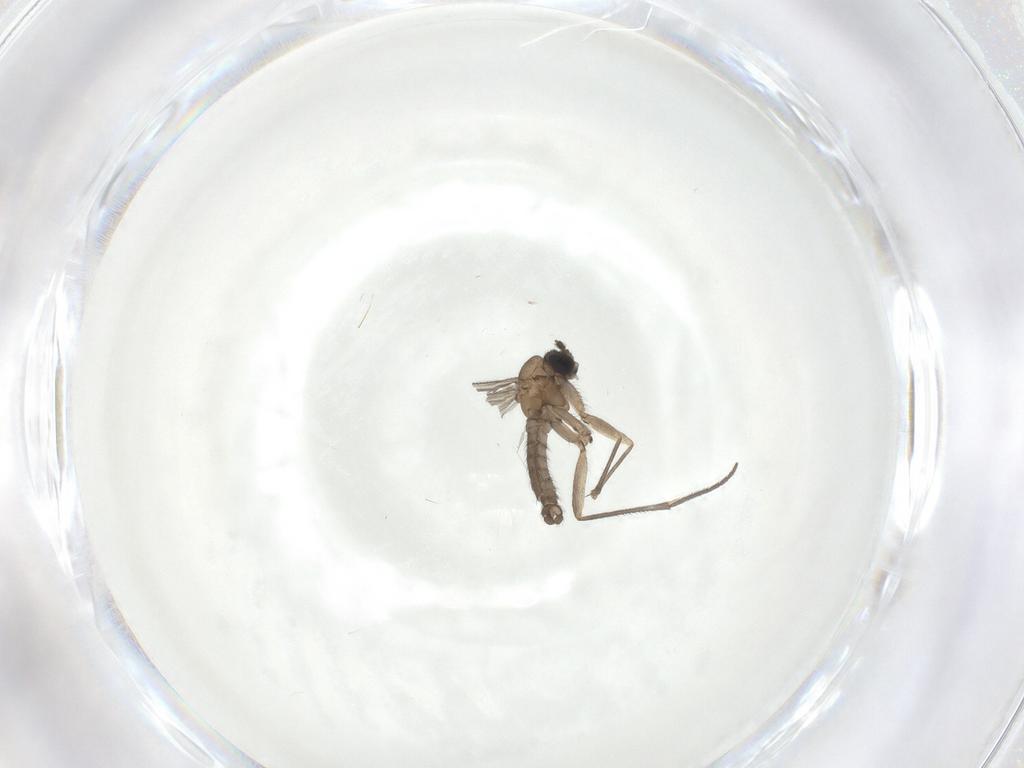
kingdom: Animalia
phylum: Arthropoda
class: Insecta
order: Diptera
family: Sciaridae
